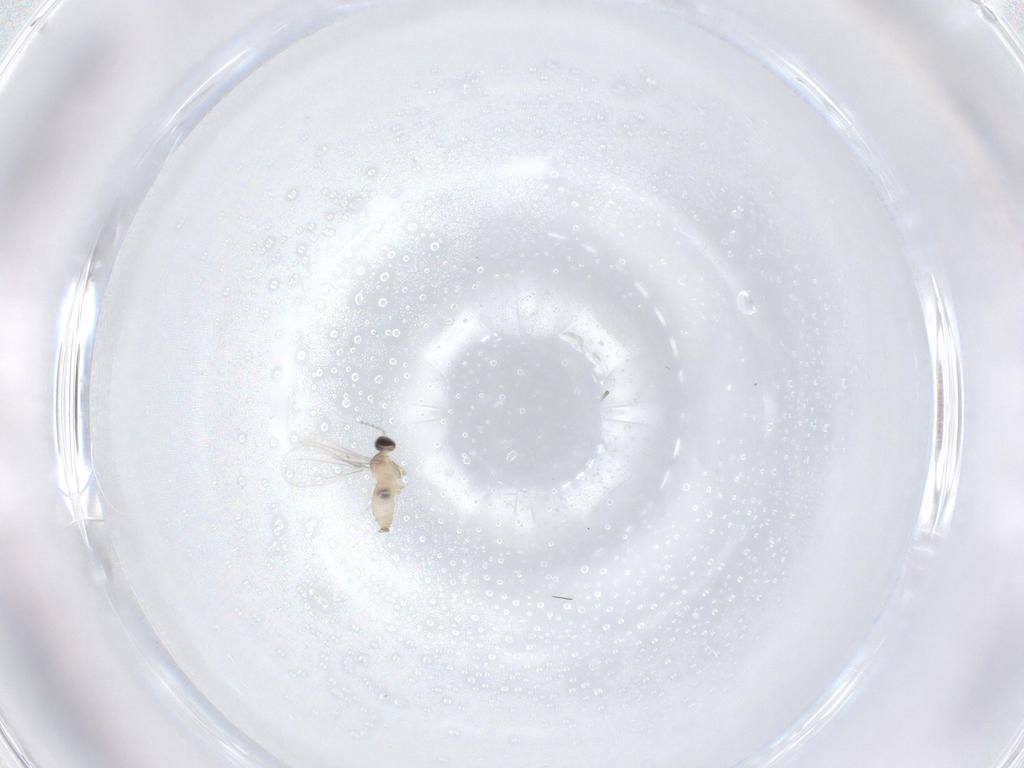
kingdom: Animalia
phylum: Arthropoda
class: Insecta
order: Diptera
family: Cecidomyiidae
